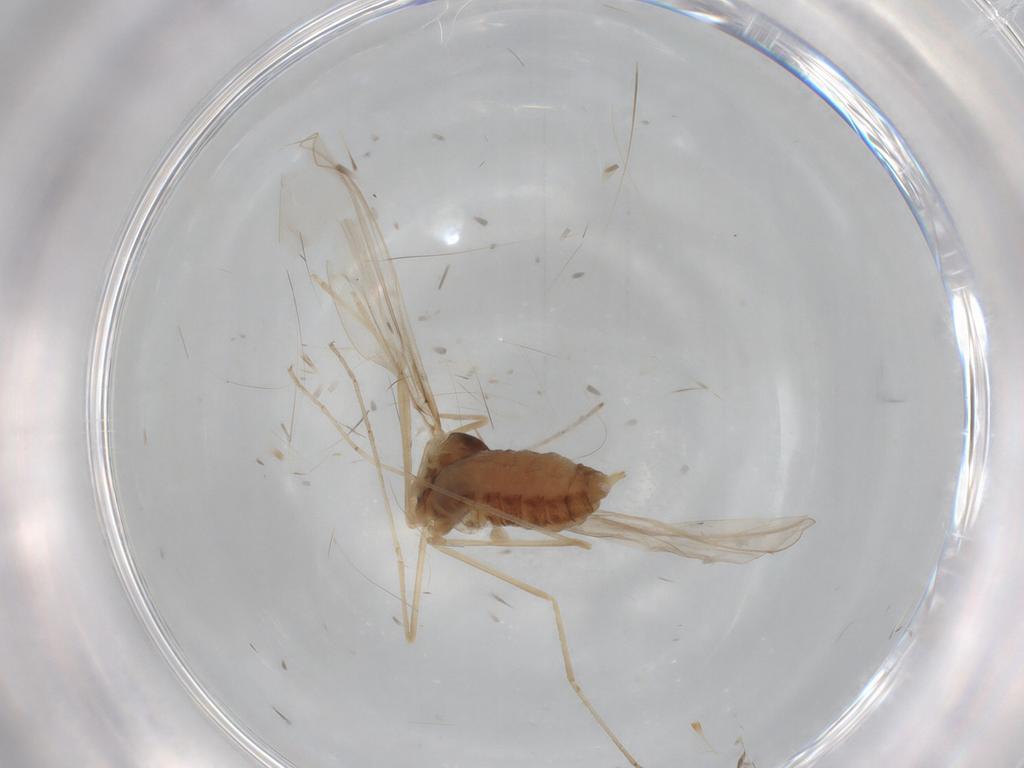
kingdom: Animalia
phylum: Arthropoda
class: Insecta
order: Diptera
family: Cecidomyiidae
